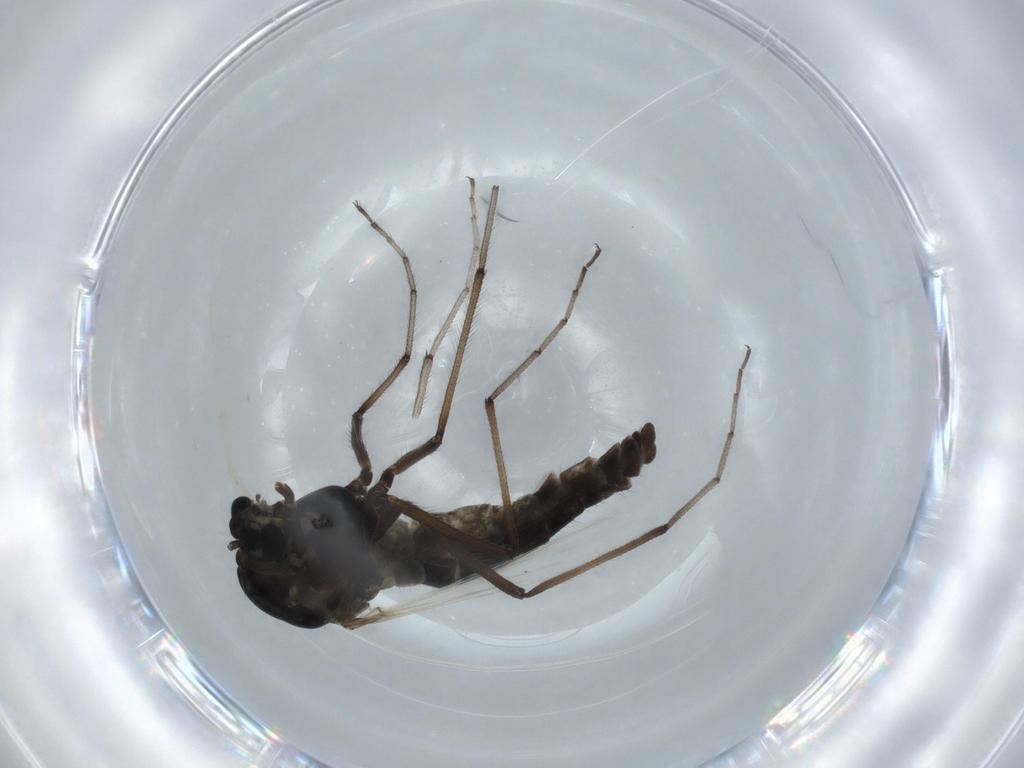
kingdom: Animalia
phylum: Arthropoda
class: Insecta
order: Diptera
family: Chironomidae
